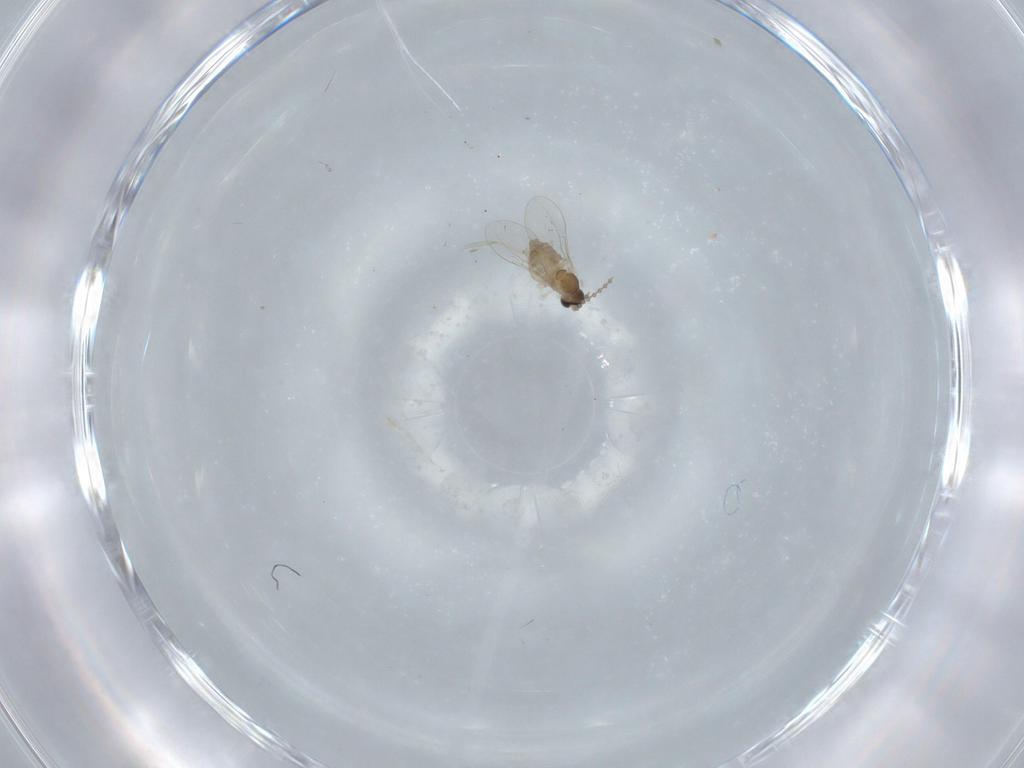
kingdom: Animalia
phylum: Arthropoda
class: Insecta
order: Diptera
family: Cecidomyiidae
